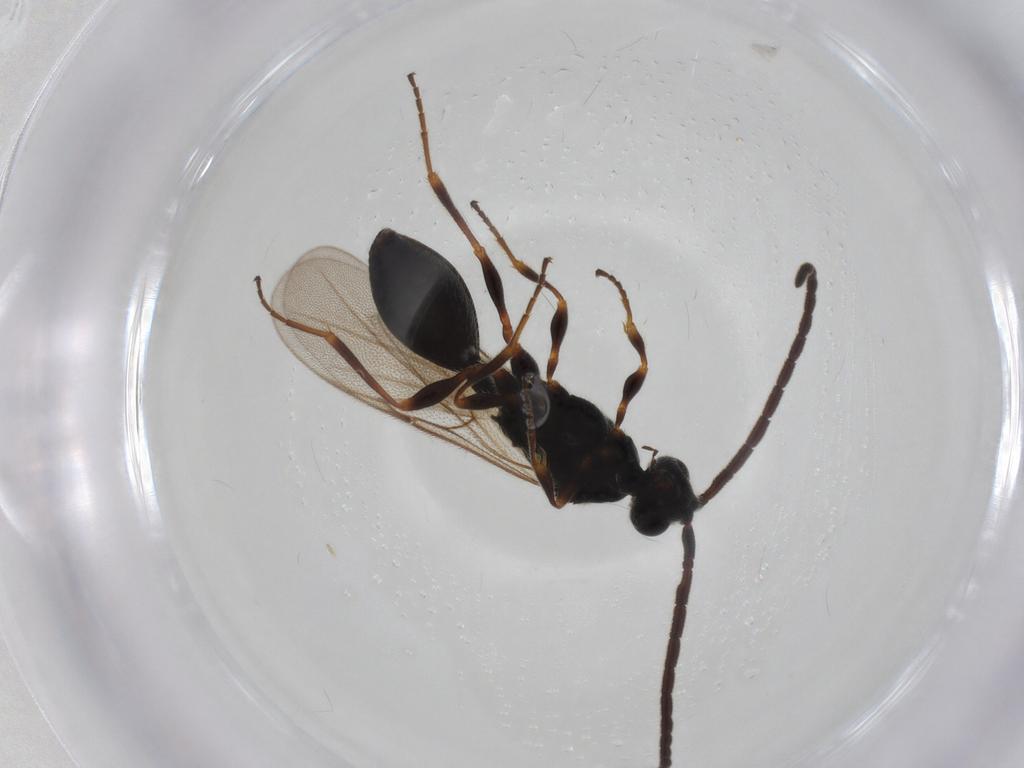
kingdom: Animalia
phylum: Arthropoda
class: Insecta
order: Hymenoptera
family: Diapriidae
